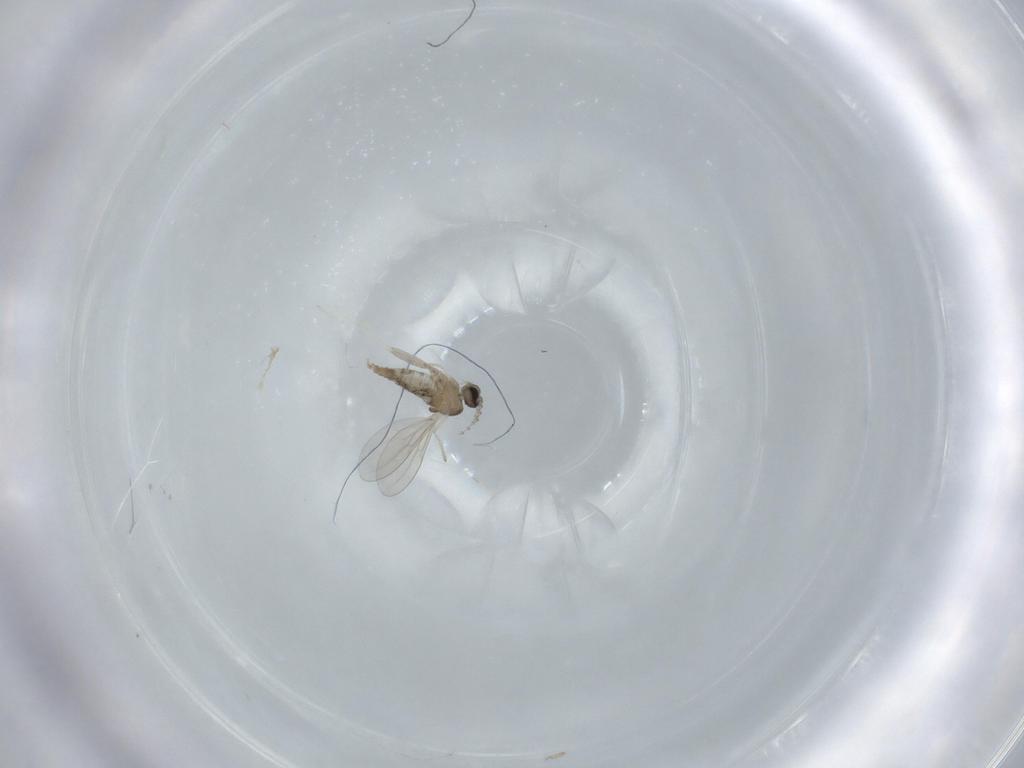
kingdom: Animalia
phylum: Arthropoda
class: Insecta
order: Diptera
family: Cecidomyiidae
